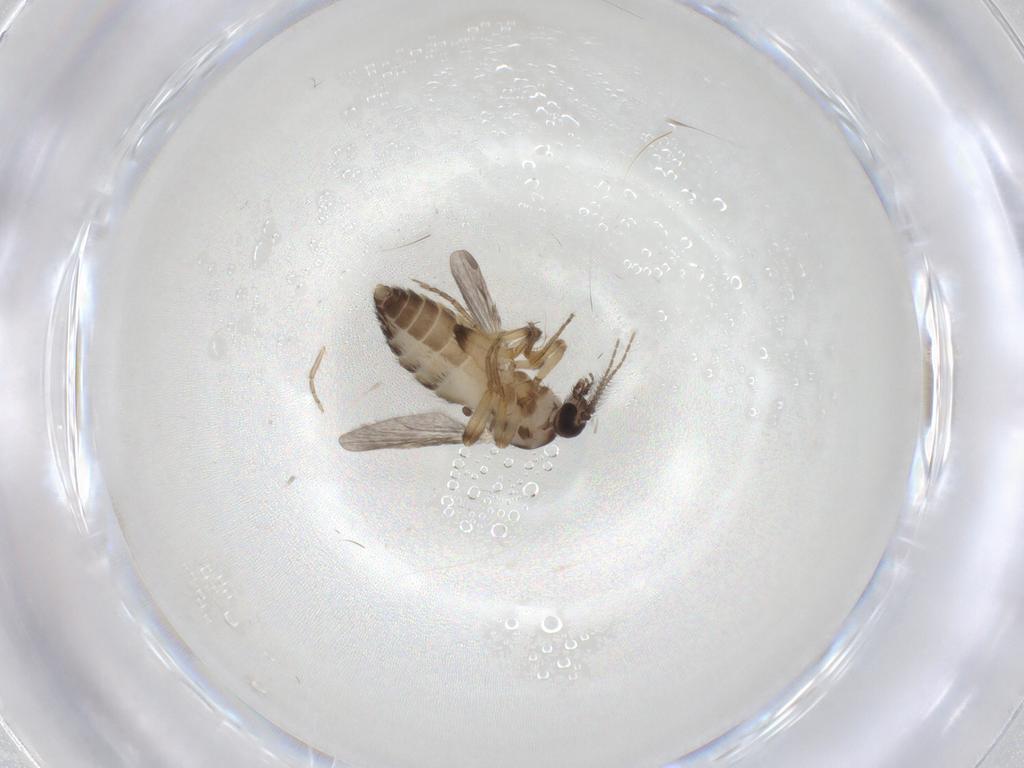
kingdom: Animalia
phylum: Arthropoda
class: Insecta
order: Diptera
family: Ceratopogonidae
